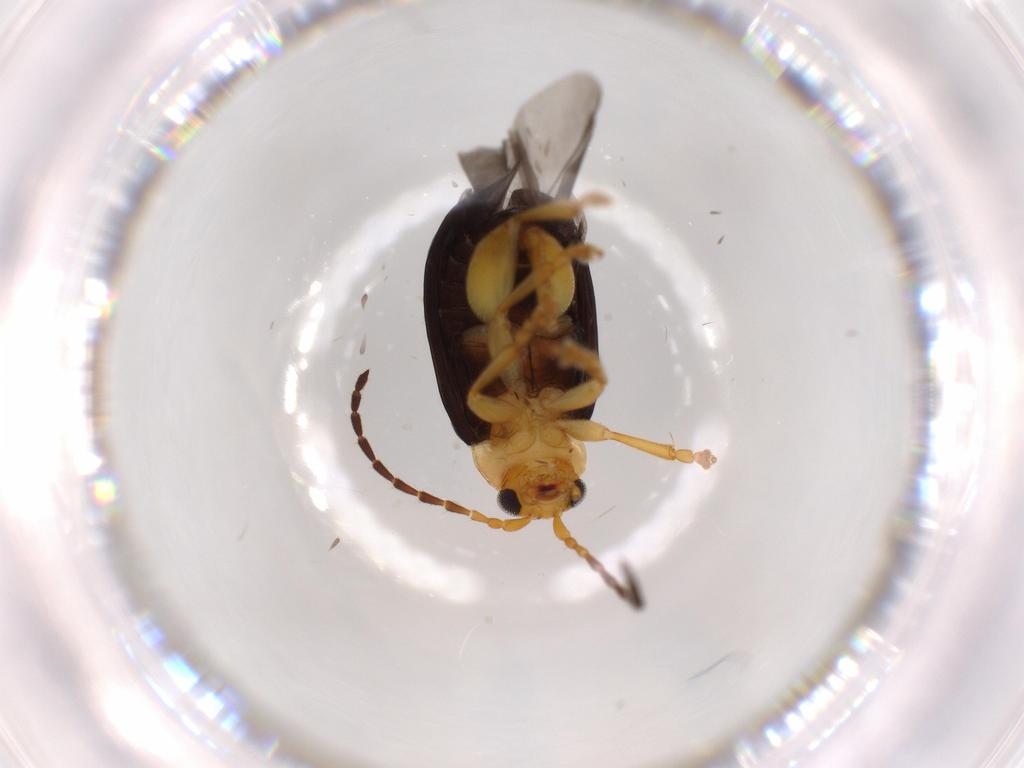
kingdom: Animalia
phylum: Arthropoda
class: Insecta
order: Coleoptera
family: Chrysomelidae
